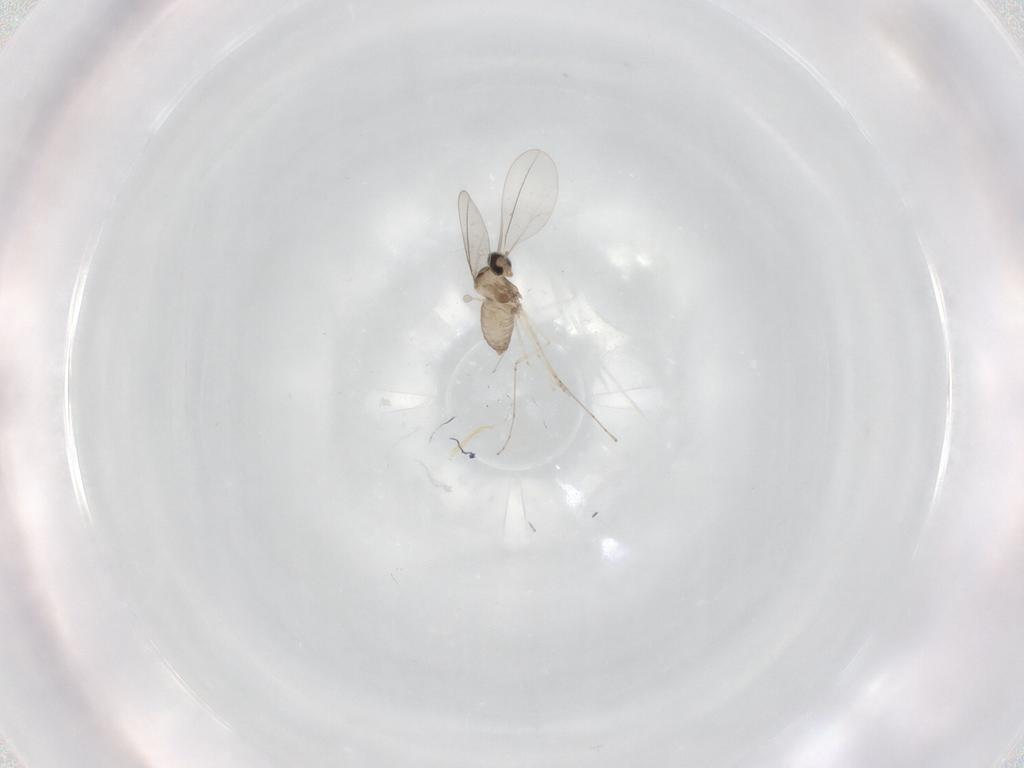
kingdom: Animalia
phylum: Arthropoda
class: Insecta
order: Diptera
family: Cecidomyiidae
